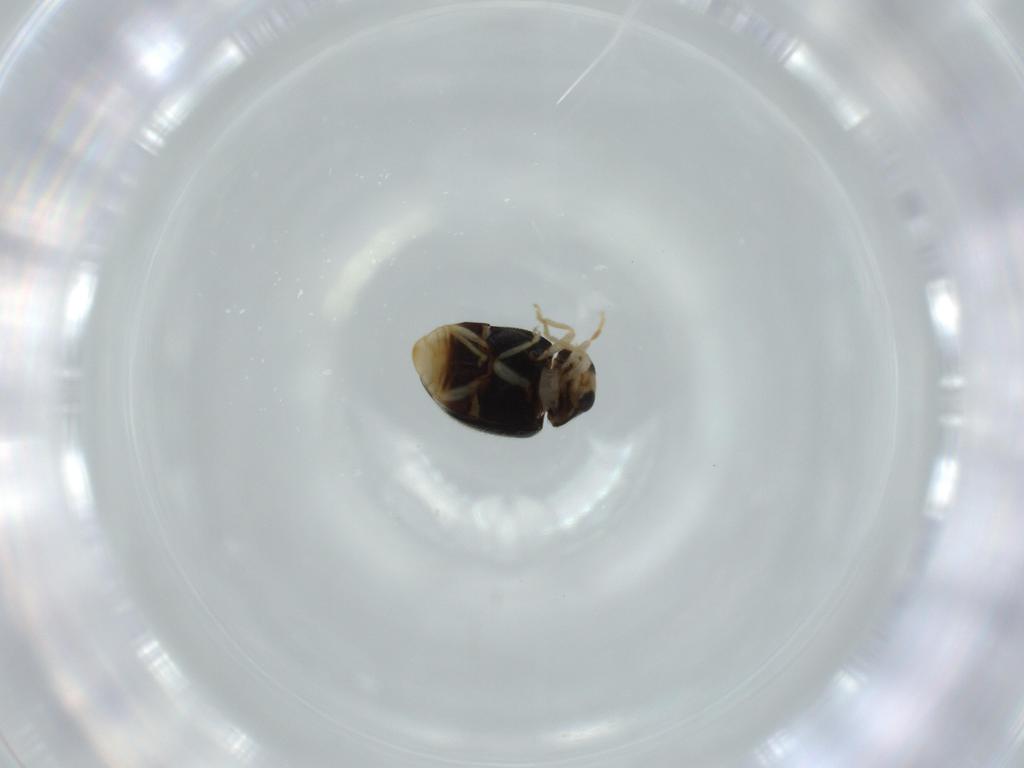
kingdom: Animalia
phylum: Arthropoda
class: Insecta
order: Coleoptera
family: Coccinellidae
